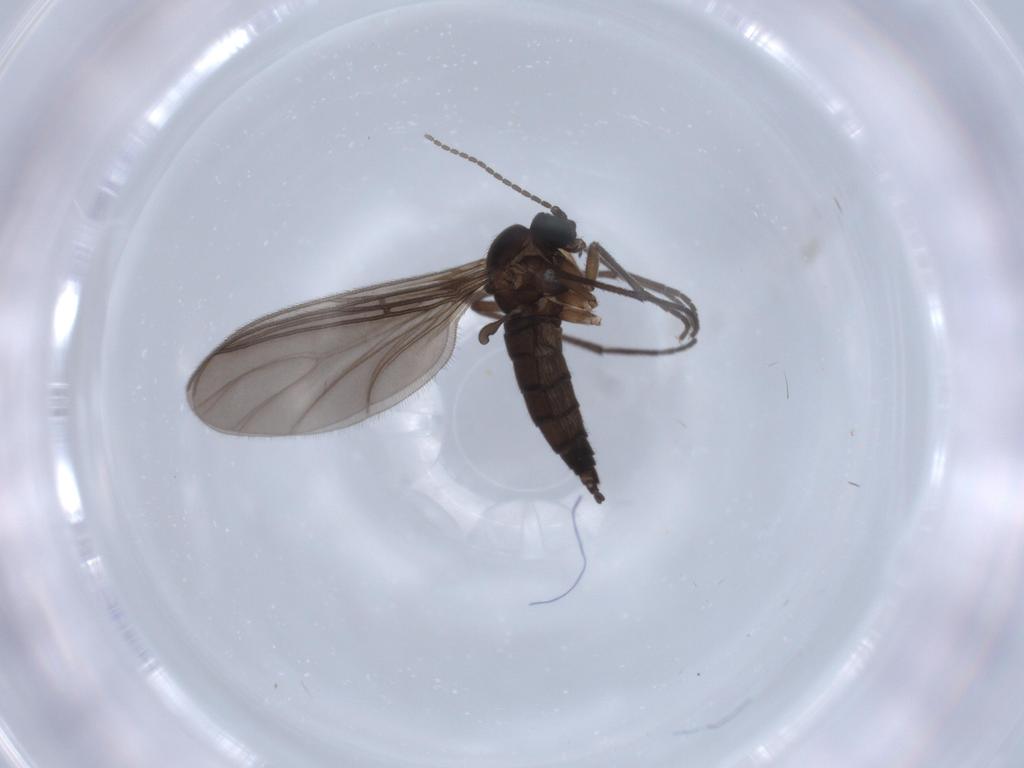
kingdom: Animalia
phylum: Arthropoda
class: Insecta
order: Diptera
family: Sciaridae
